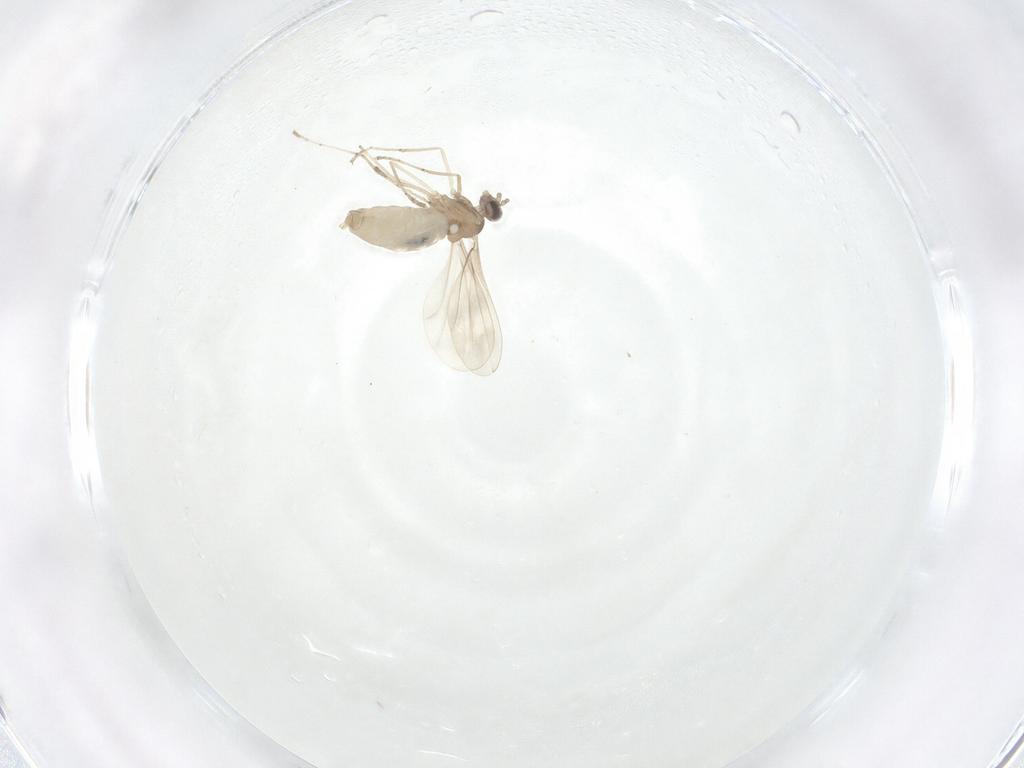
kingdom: Animalia
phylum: Arthropoda
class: Insecta
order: Diptera
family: Cecidomyiidae
